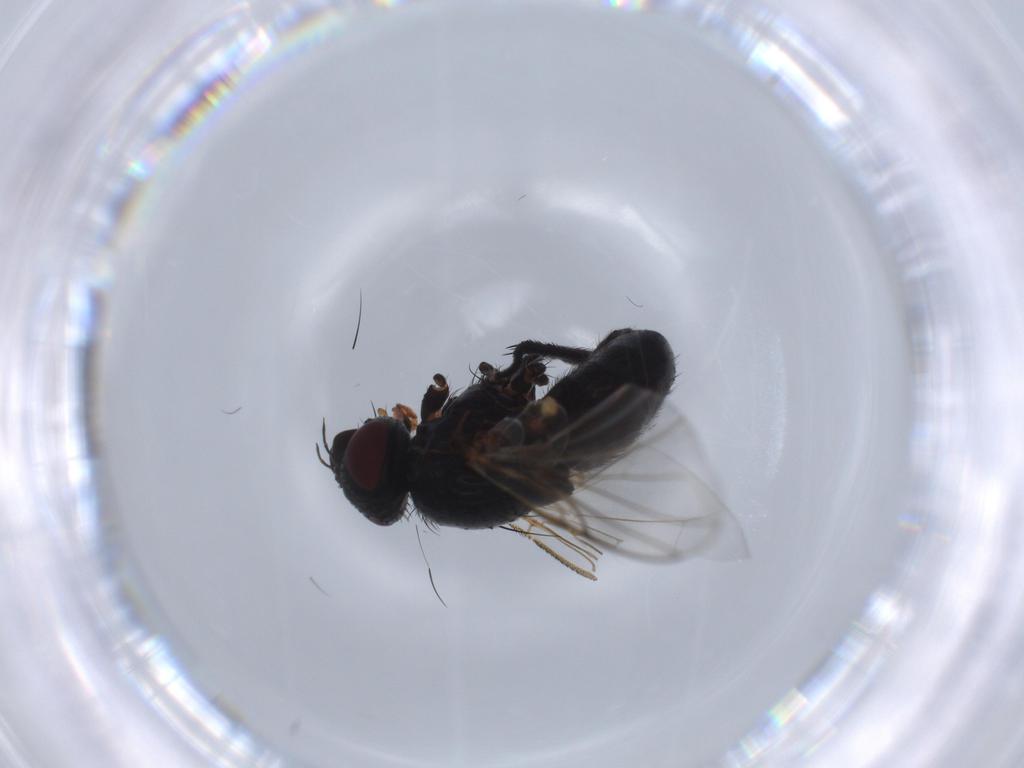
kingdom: Animalia
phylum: Arthropoda
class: Insecta
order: Diptera
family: Tachinidae
